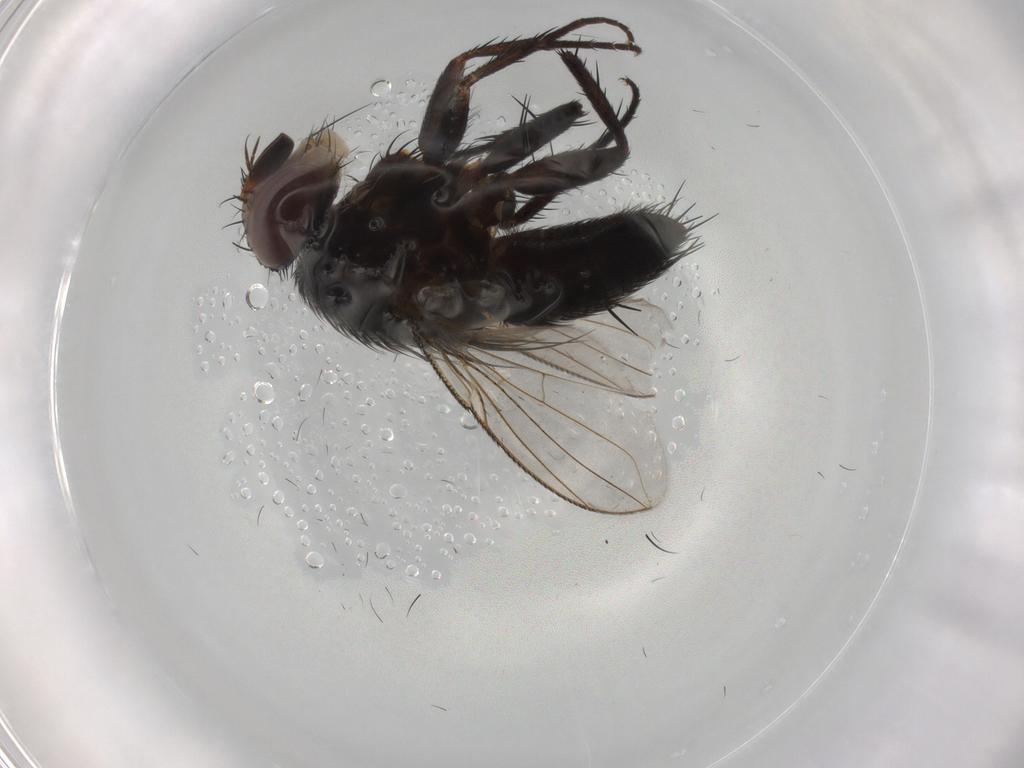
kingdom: Animalia
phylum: Arthropoda
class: Insecta
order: Diptera
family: Tachinidae
